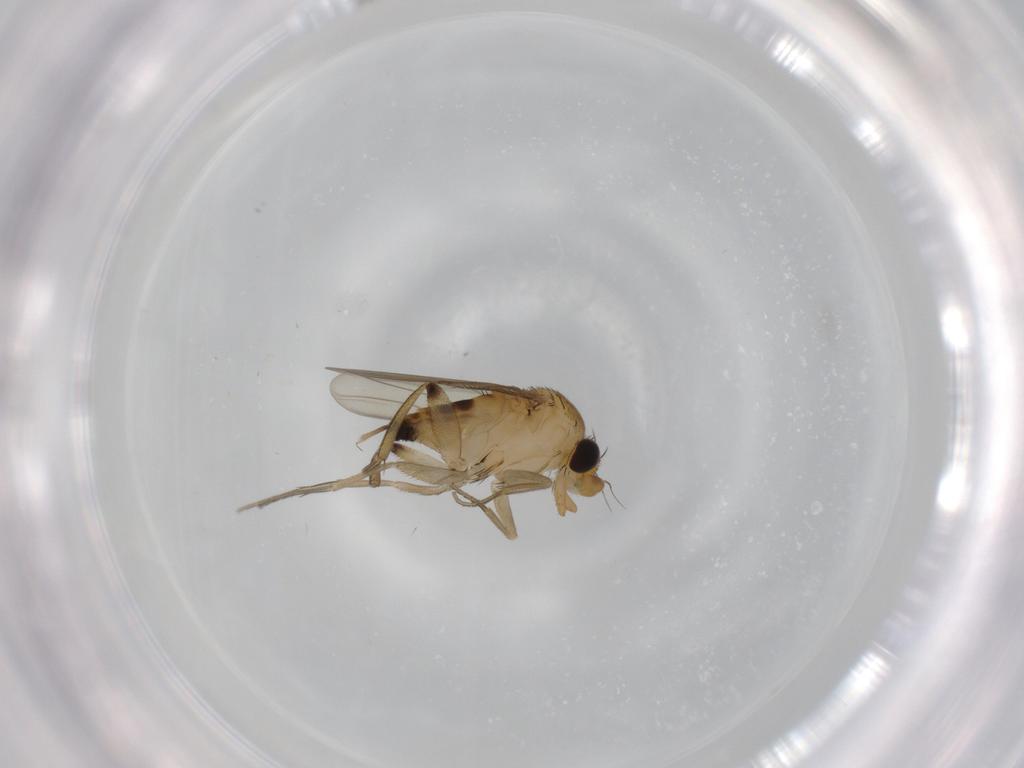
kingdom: Animalia
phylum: Arthropoda
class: Insecta
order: Diptera
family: Phoridae
